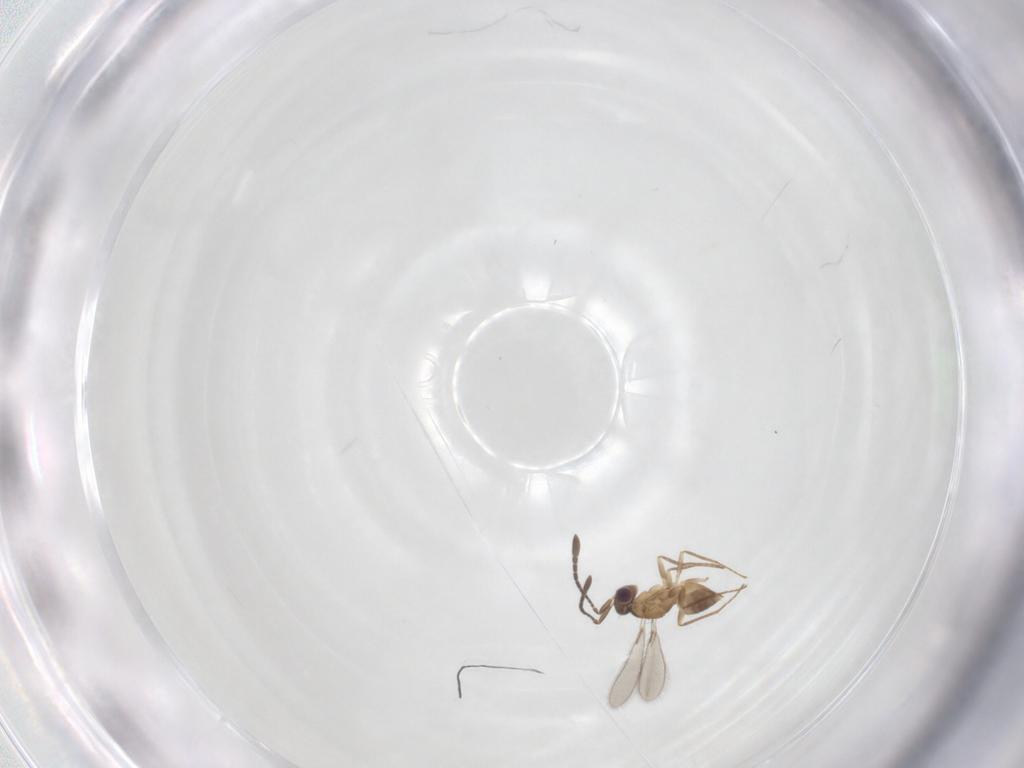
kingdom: Animalia
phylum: Arthropoda
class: Insecta
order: Hymenoptera
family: Mymaridae
